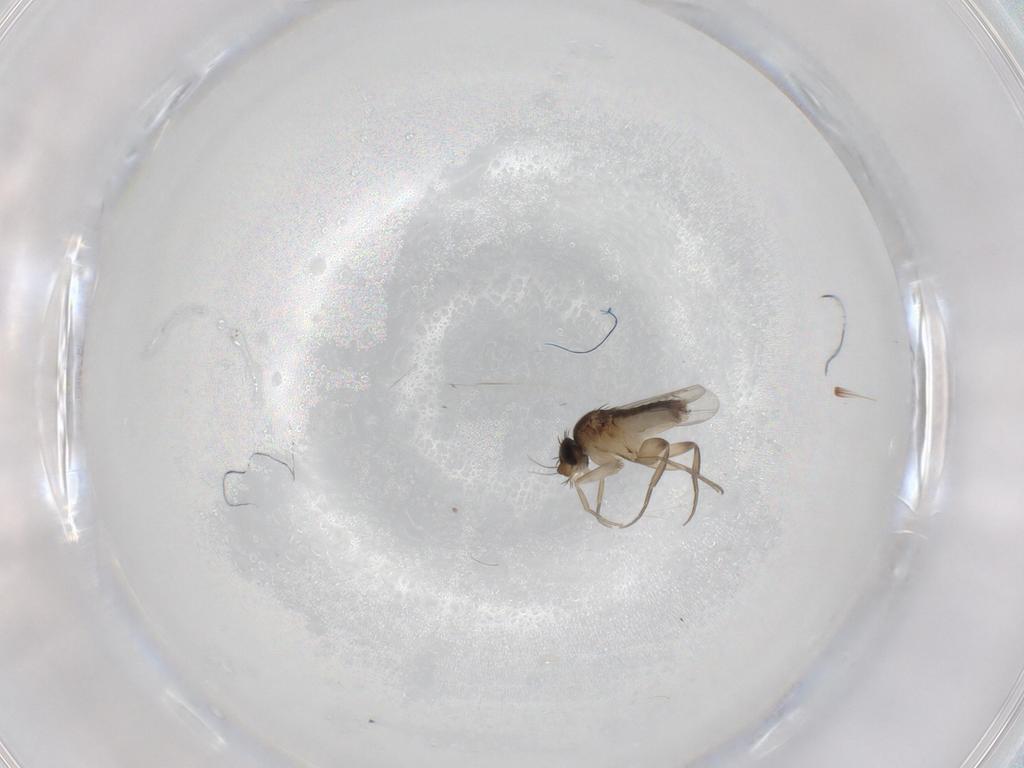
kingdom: Animalia
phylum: Arthropoda
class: Insecta
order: Diptera
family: Phoridae
